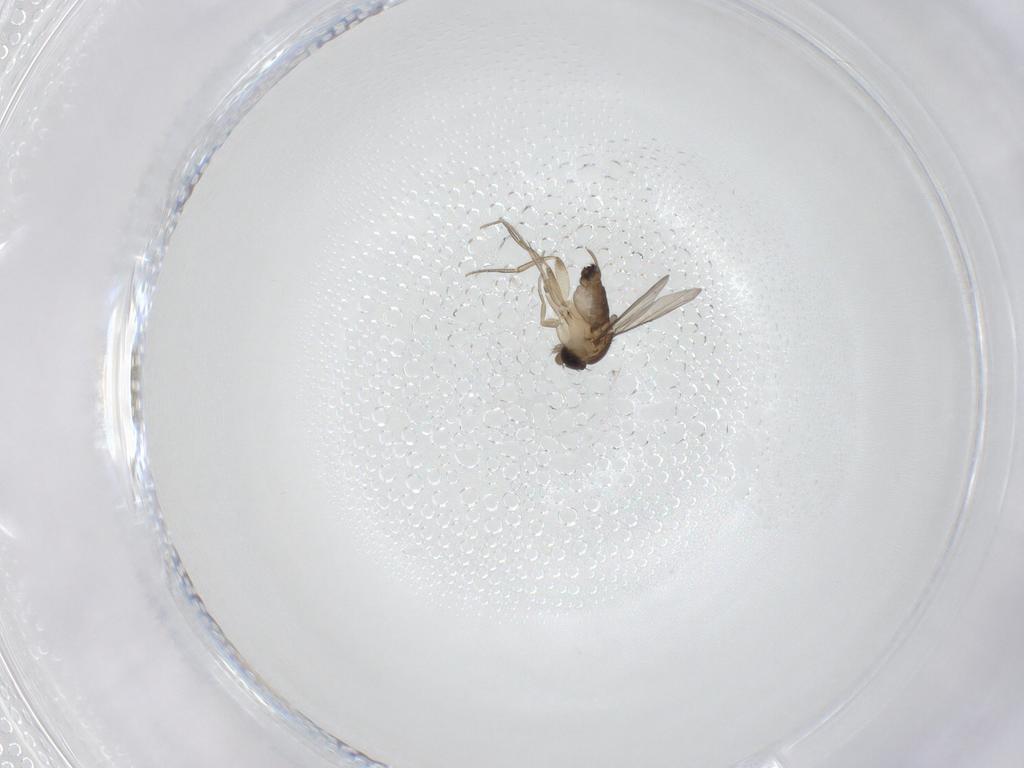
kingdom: Animalia
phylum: Arthropoda
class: Insecta
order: Diptera
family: Phoridae
